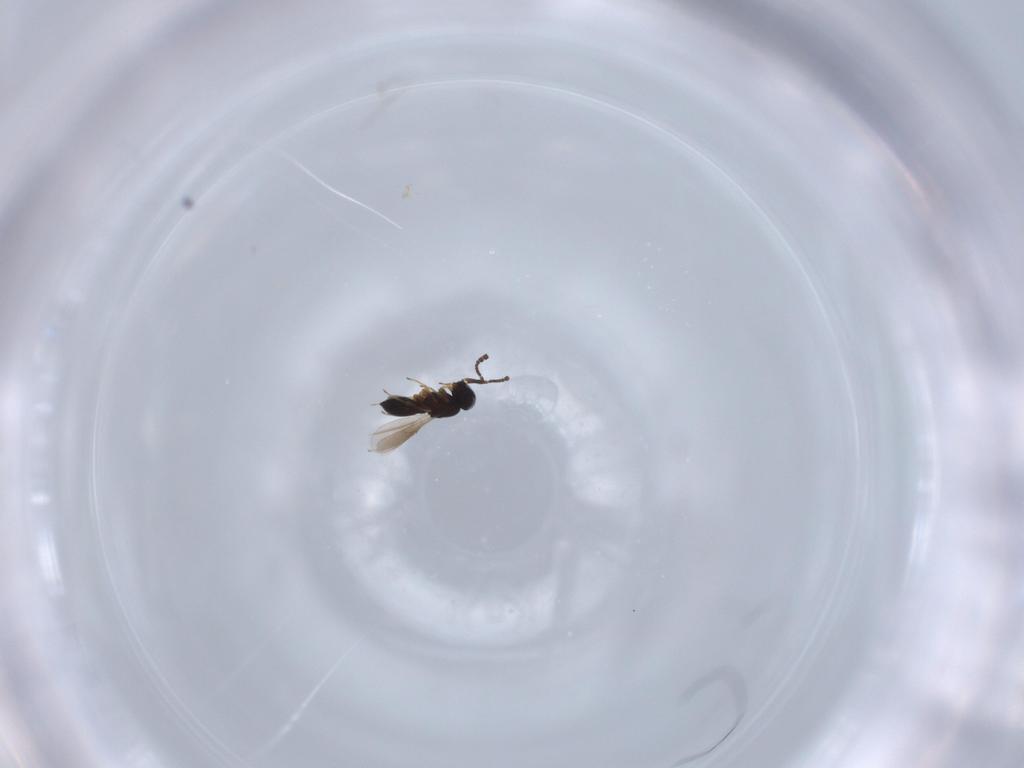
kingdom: Animalia
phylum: Arthropoda
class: Insecta
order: Hymenoptera
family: Scelionidae
